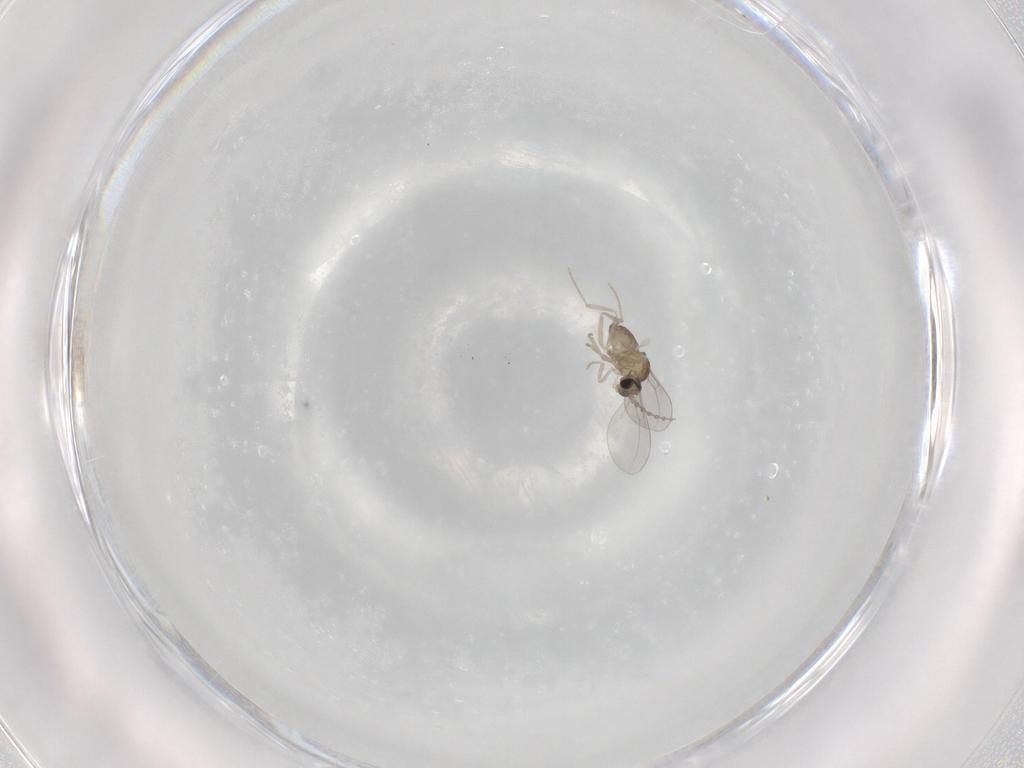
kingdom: Animalia
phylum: Arthropoda
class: Insecta
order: Diptera
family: Cecidomyiidae
